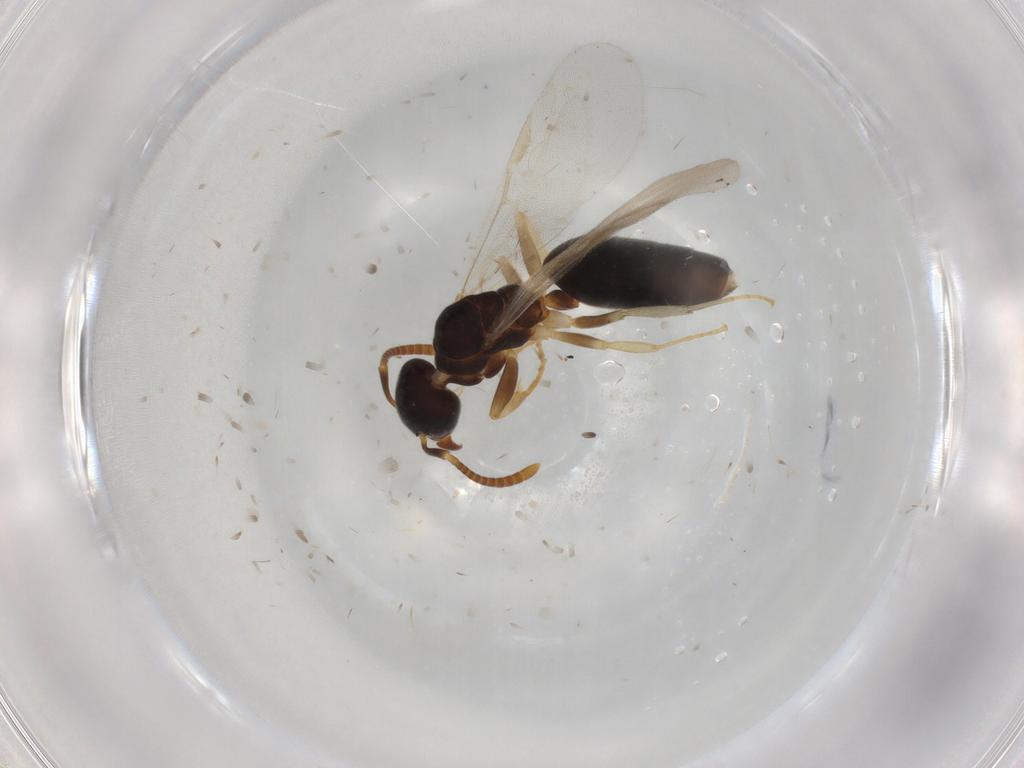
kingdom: Animalia
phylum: Arthropoda
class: Insecta
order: Hymenoptera
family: Formicidae
